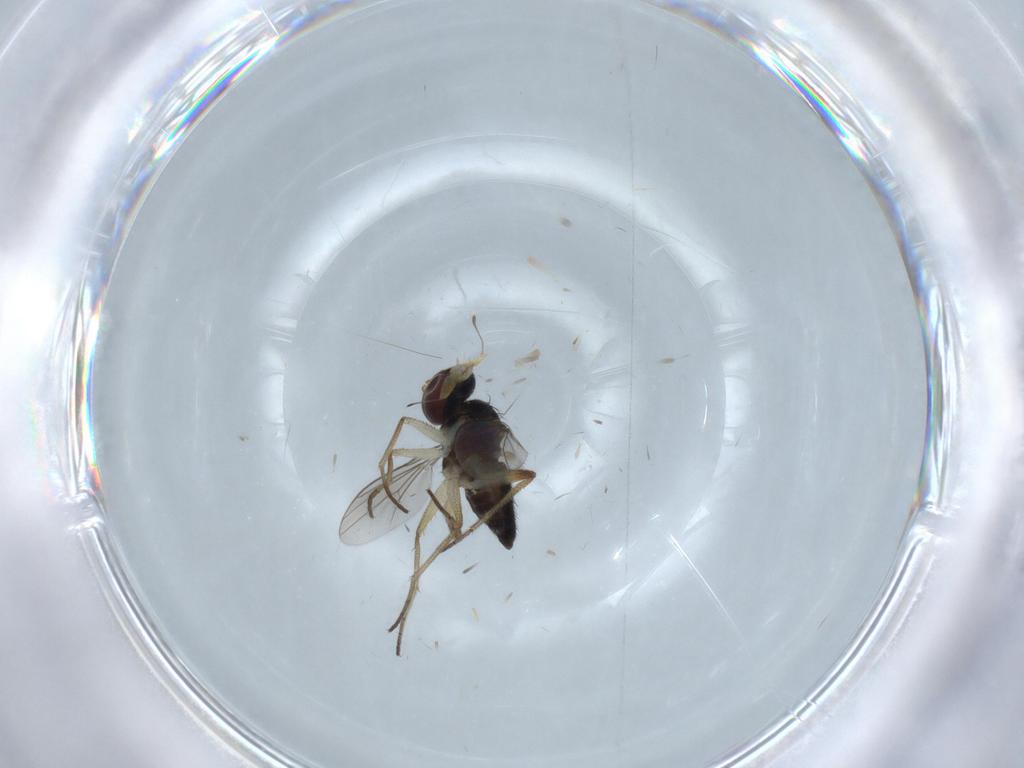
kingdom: Animalia
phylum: Arthropoda
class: Insecta
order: Diptera
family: Dolichopodidae
